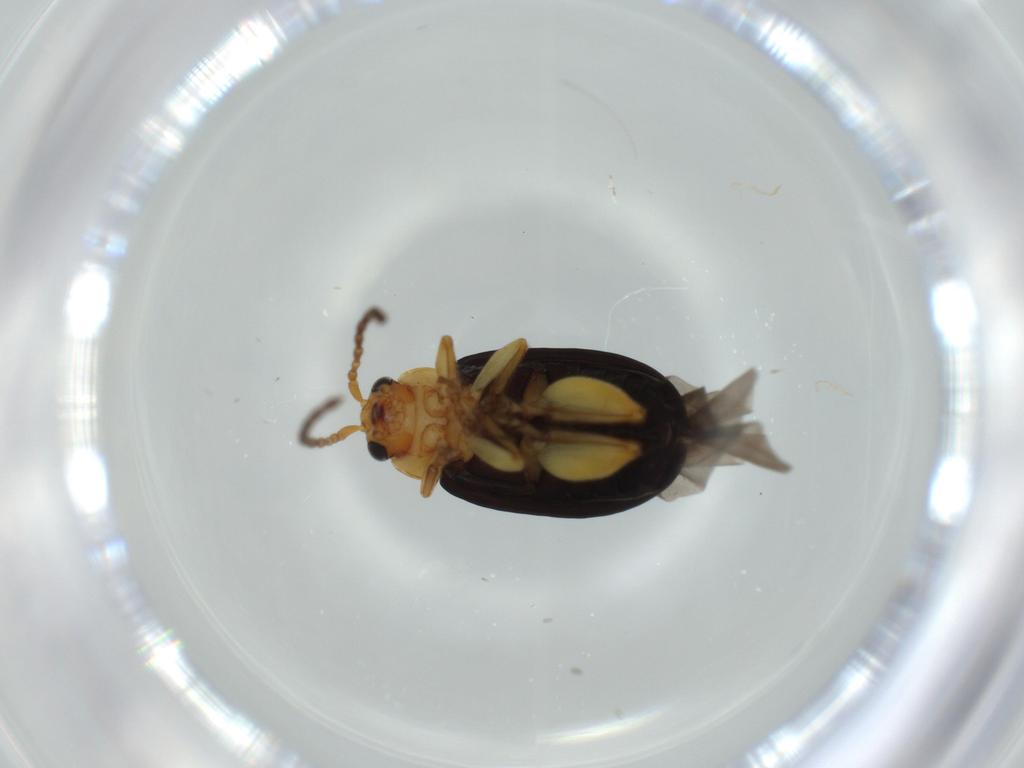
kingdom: Animalia
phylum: Arthropoda
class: Insecta
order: Coleoptera
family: Chrysomelidae
